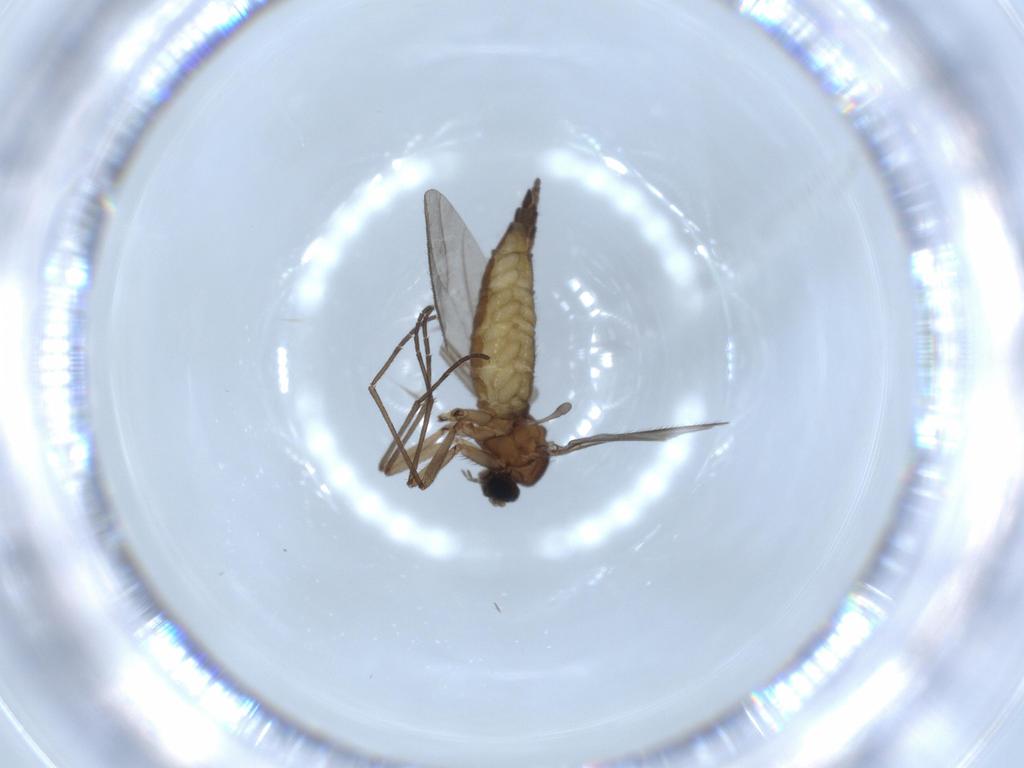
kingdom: Animalia
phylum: Arthropoda
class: Insecta
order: Diptera
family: Sciaridae
